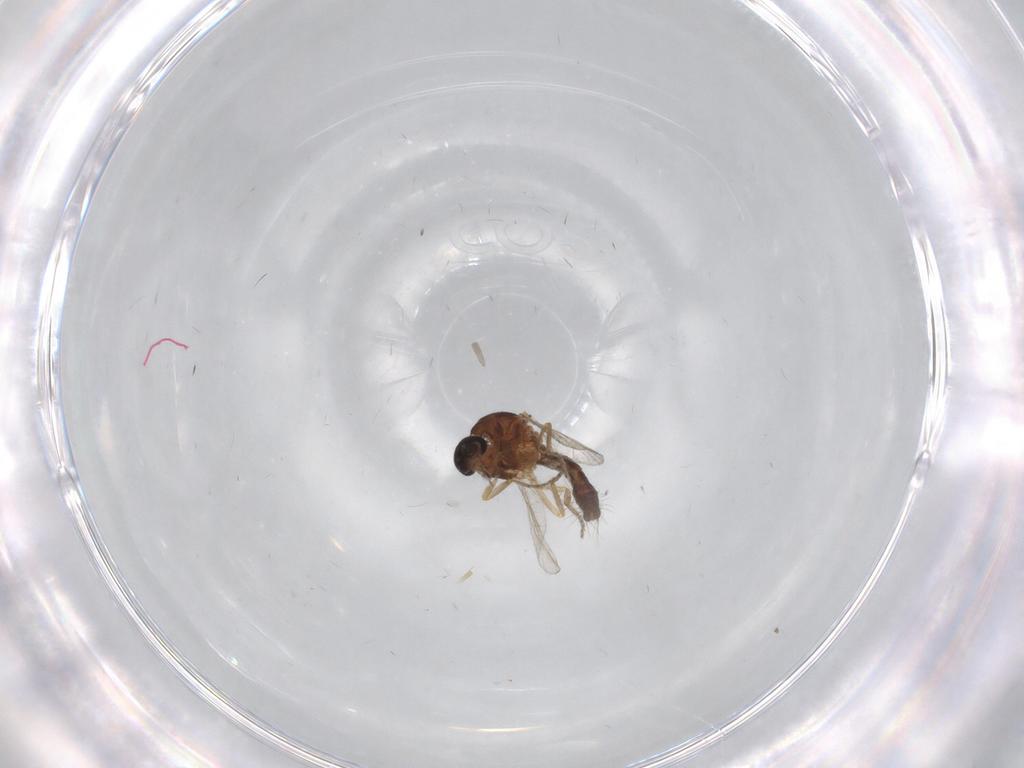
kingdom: Animalia
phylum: Arthropoda
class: Insecta
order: Diptera
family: Ceratopogonidae
